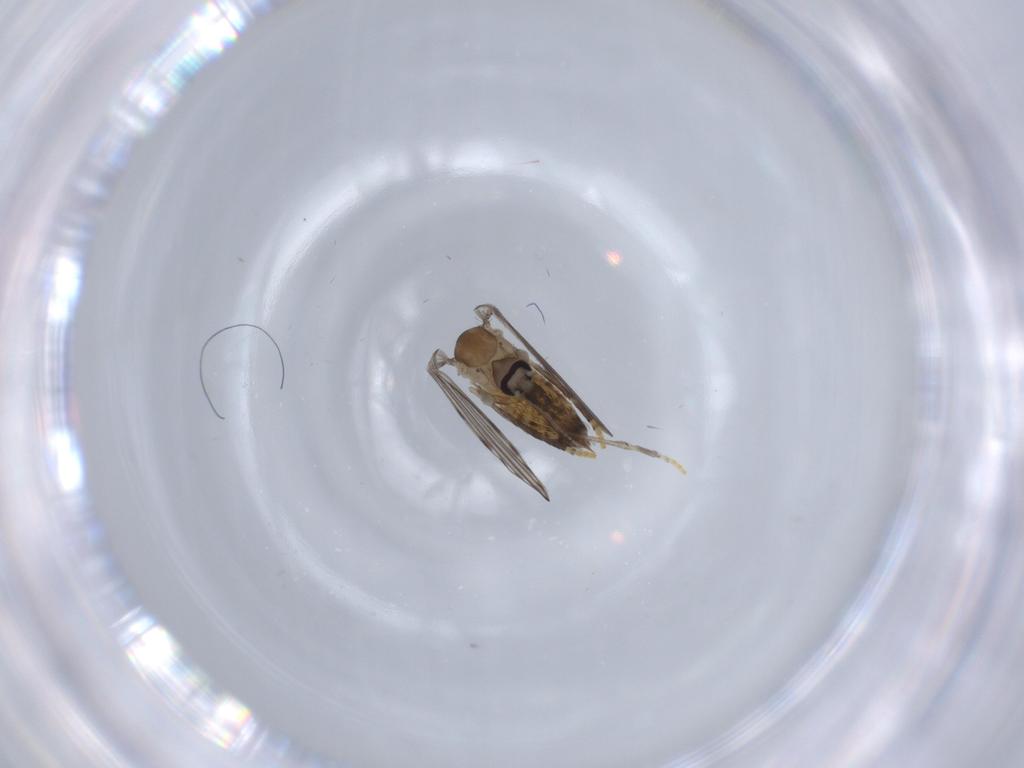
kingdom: Animalia
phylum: Arthropoda
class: Insecta
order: Diptera
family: Psychodidae
